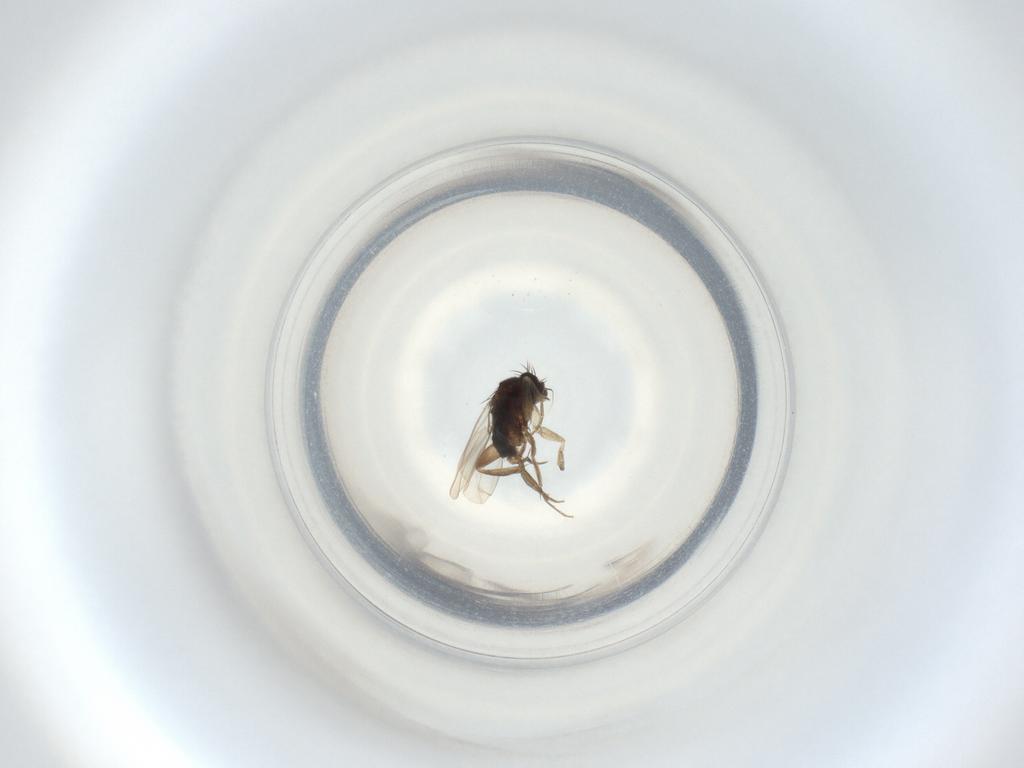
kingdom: Animalia
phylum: Arthropoda
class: Insecta
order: Diptera
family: Phoridae
